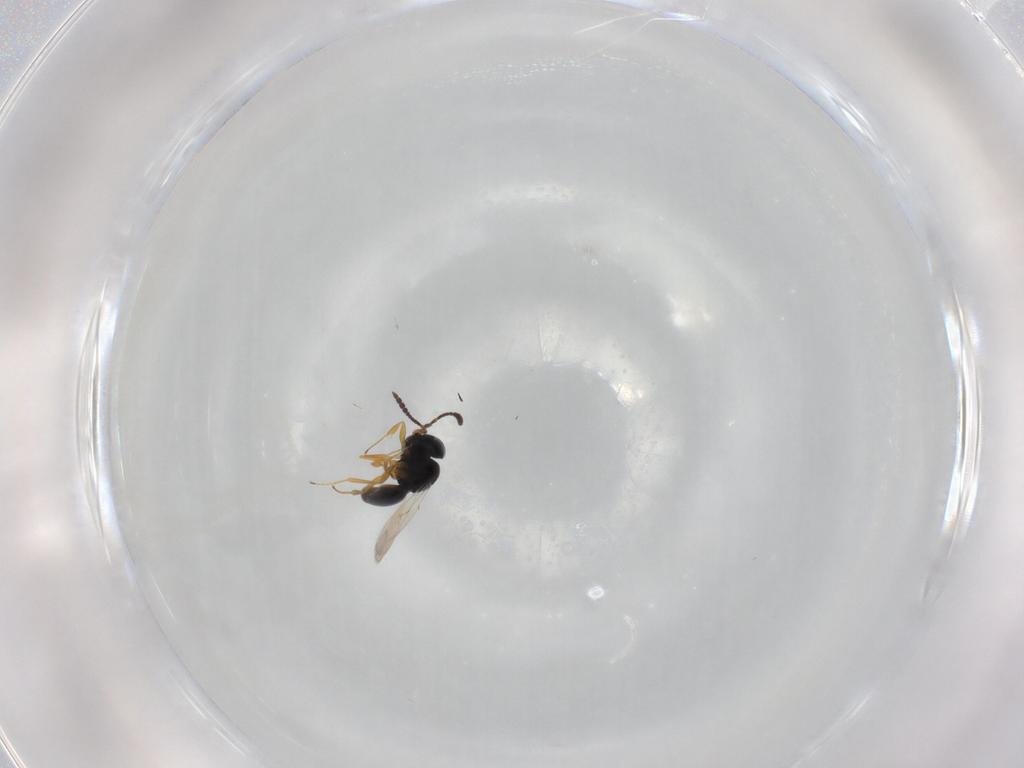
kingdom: Animalia
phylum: Arthropoda
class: Insecta
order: Hymenoptera
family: Scelionidae
